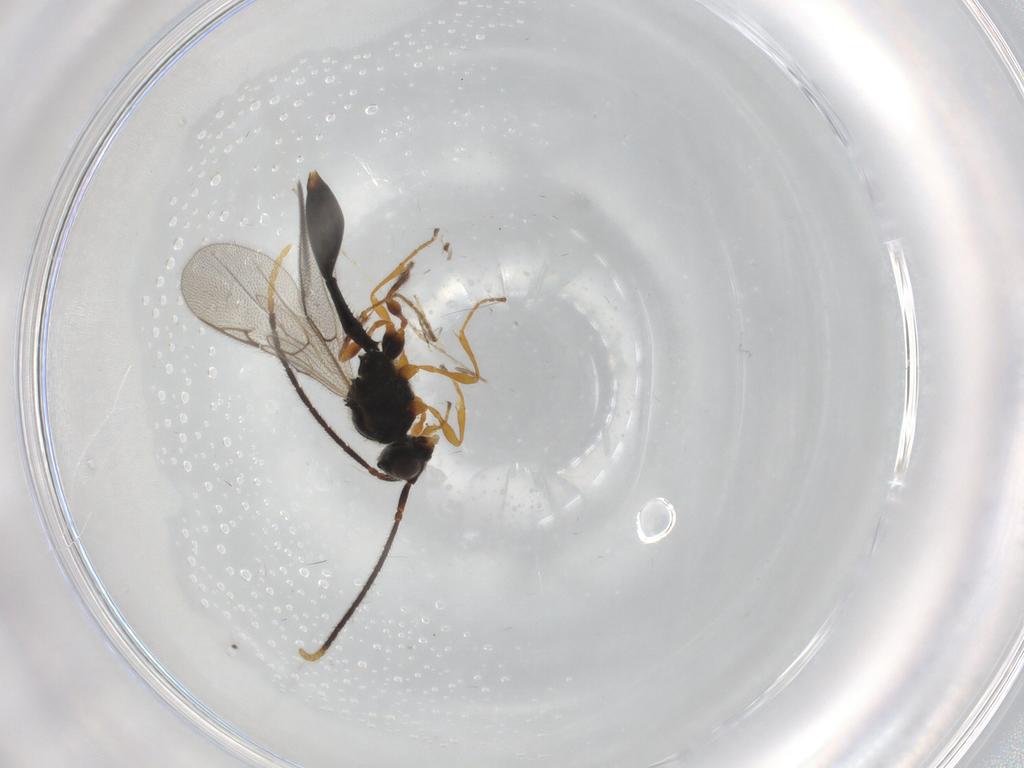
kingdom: Animalia
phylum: Arthropoda
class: Insecta
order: Hymenoptera
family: Diapriidae
